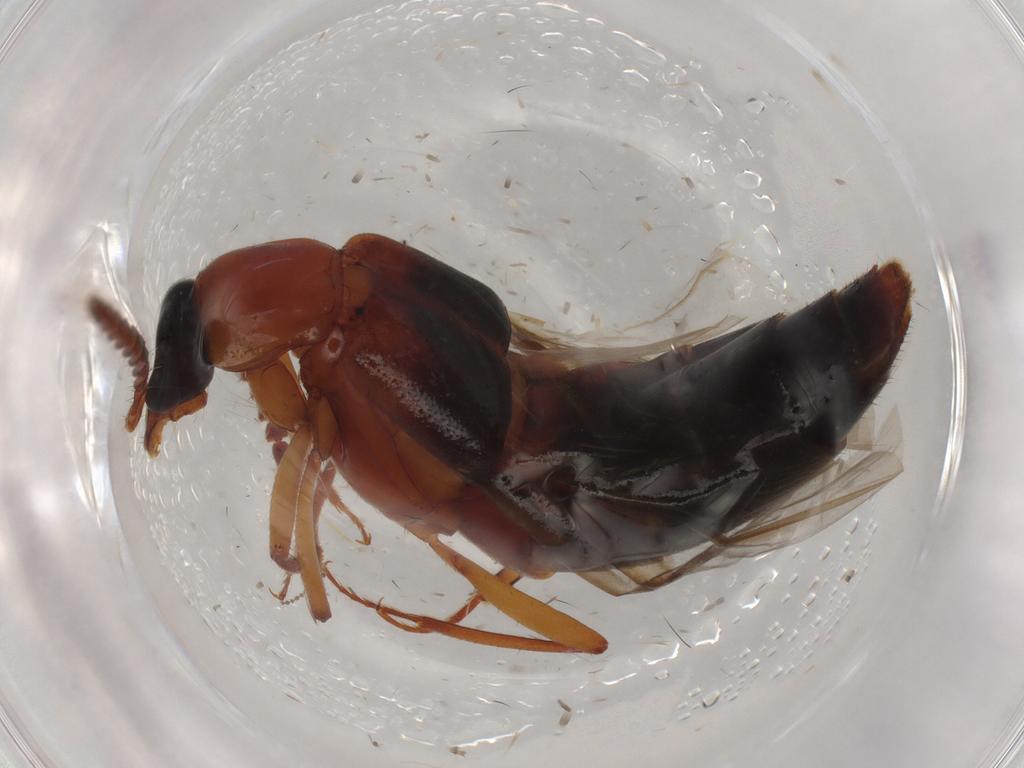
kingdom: Animalia
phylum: Arthropoda
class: Insecta
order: Coleoptera
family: Staphylinidae
